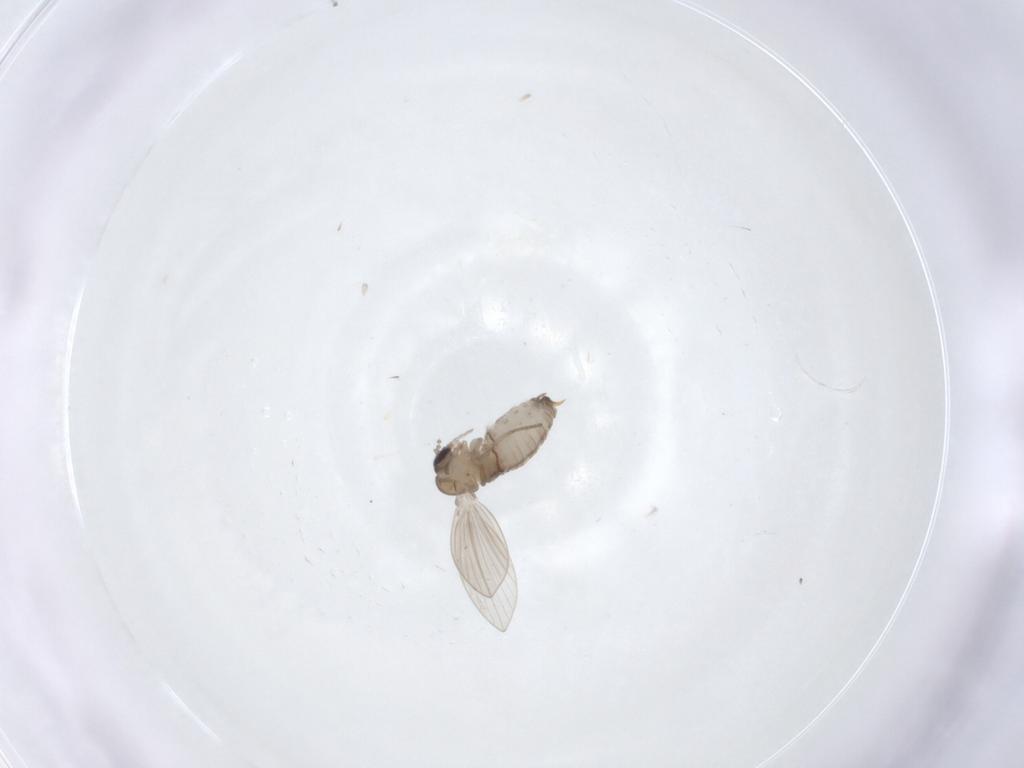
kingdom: Animalia
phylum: Arthropoda
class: Insecta
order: Diptera
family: Psychodidae
